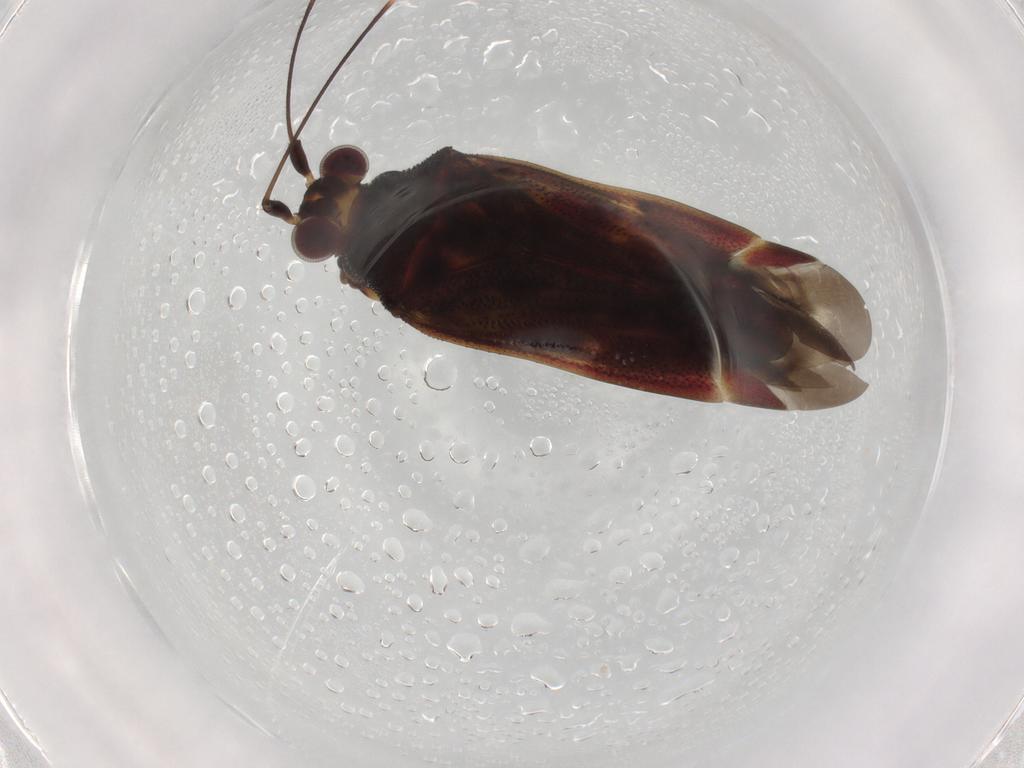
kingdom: Animalia
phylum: Arthropoda
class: Insecta
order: Hemiptera
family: Miridae
